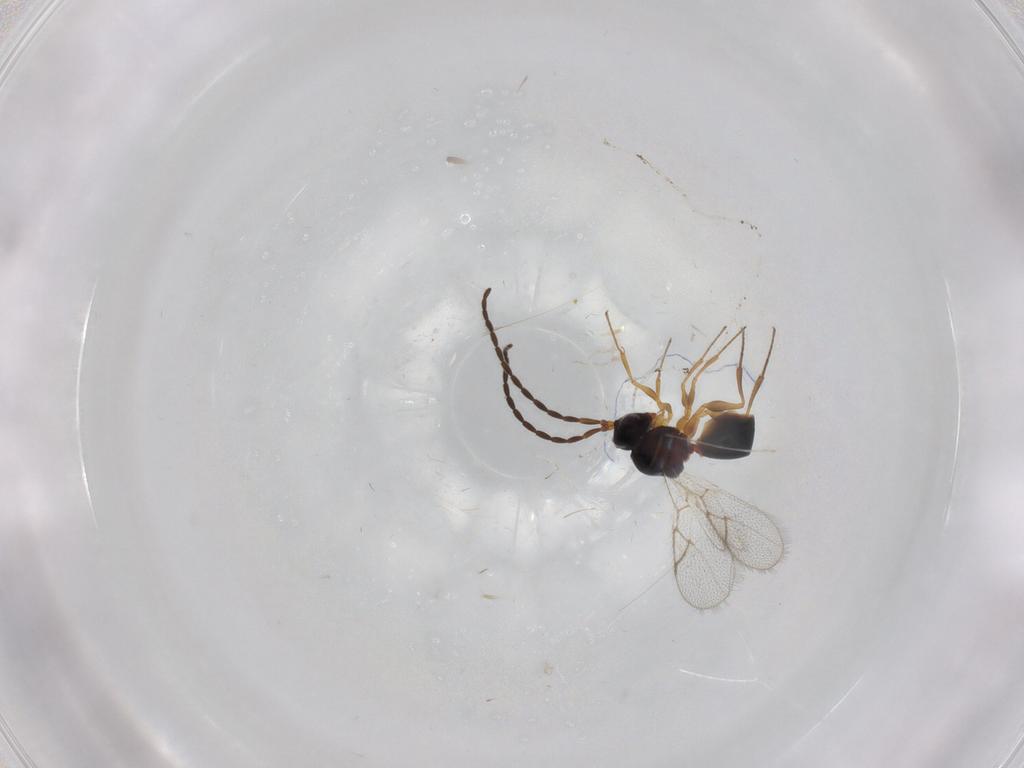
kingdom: Animalia
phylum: Arthropoda
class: Insecta
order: Hymenoptera
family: Figitidae
